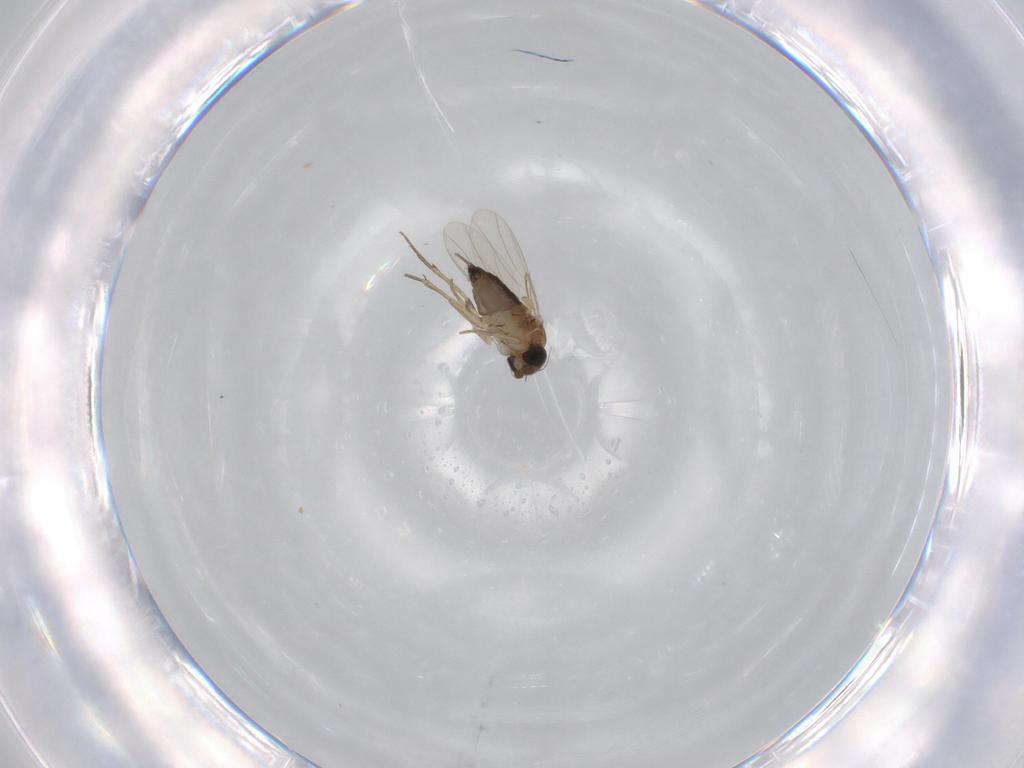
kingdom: Animalia
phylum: Arthropoda
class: Insecta
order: Diptera
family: Phoridae
